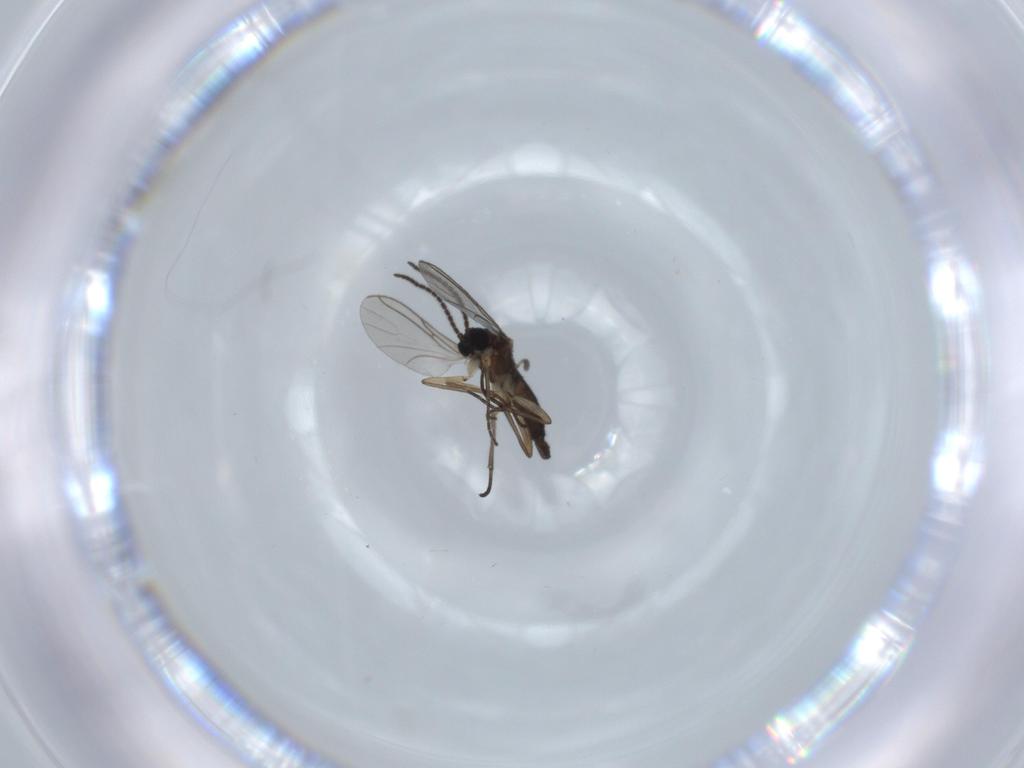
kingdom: Animalia
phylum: Arthropoda
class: Insecta
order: Diptera
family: Sciaridae
